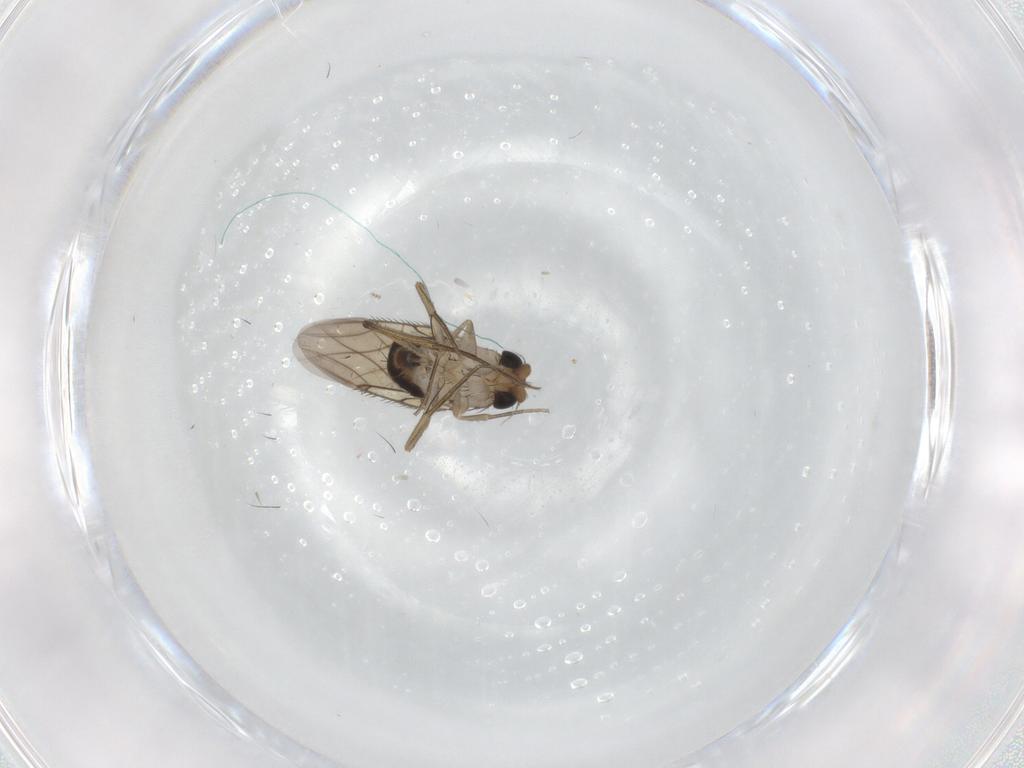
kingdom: Animalia
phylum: Arthropoda
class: Insecta
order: Diptera
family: Phoridae
